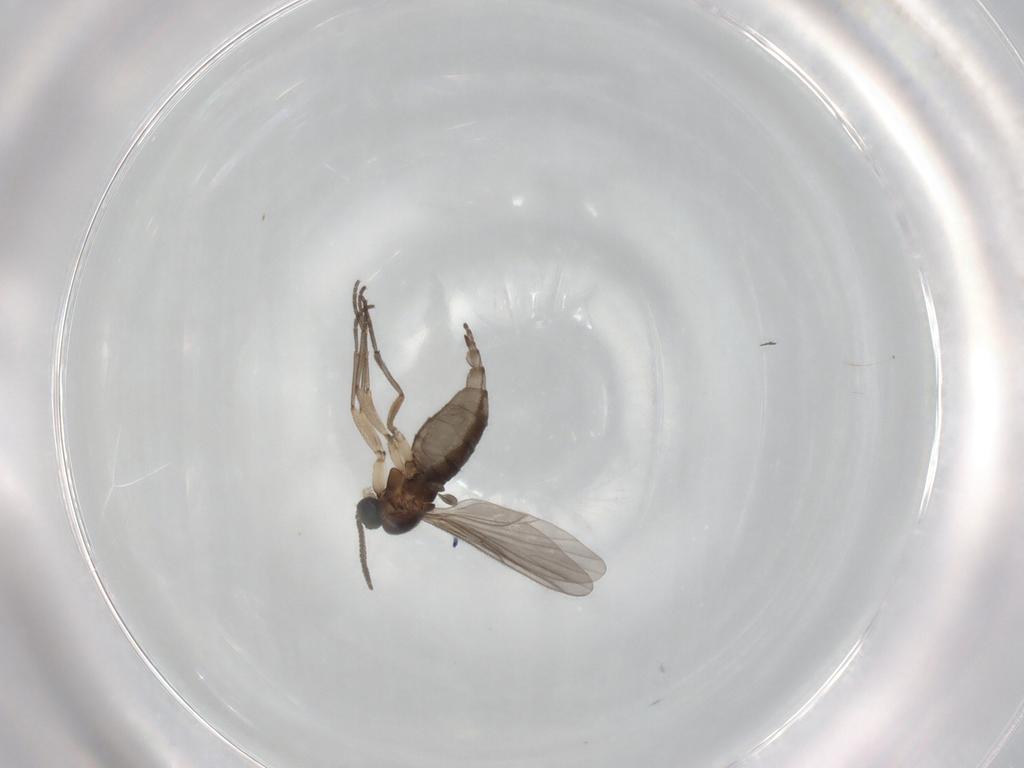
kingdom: Animalia
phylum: Arthropoda
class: Insecta
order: Diptera
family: Sciaridae
